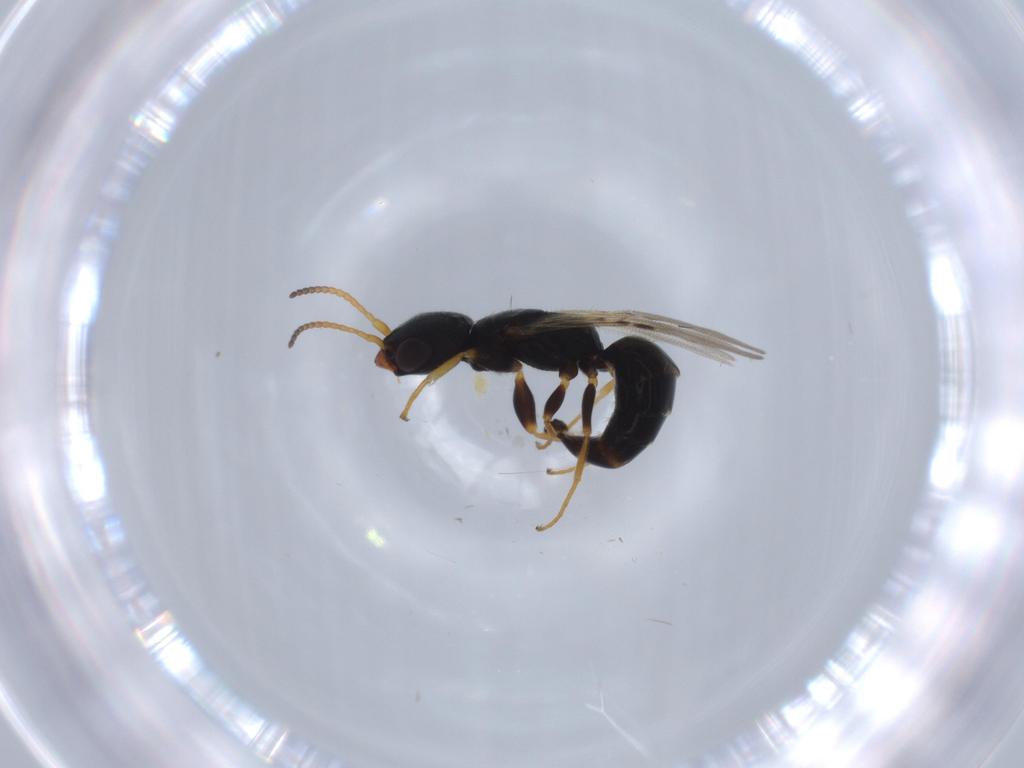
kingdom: Animalia
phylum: Arthropoda
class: Insecta
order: Hymenoptera
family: Bethylidae
